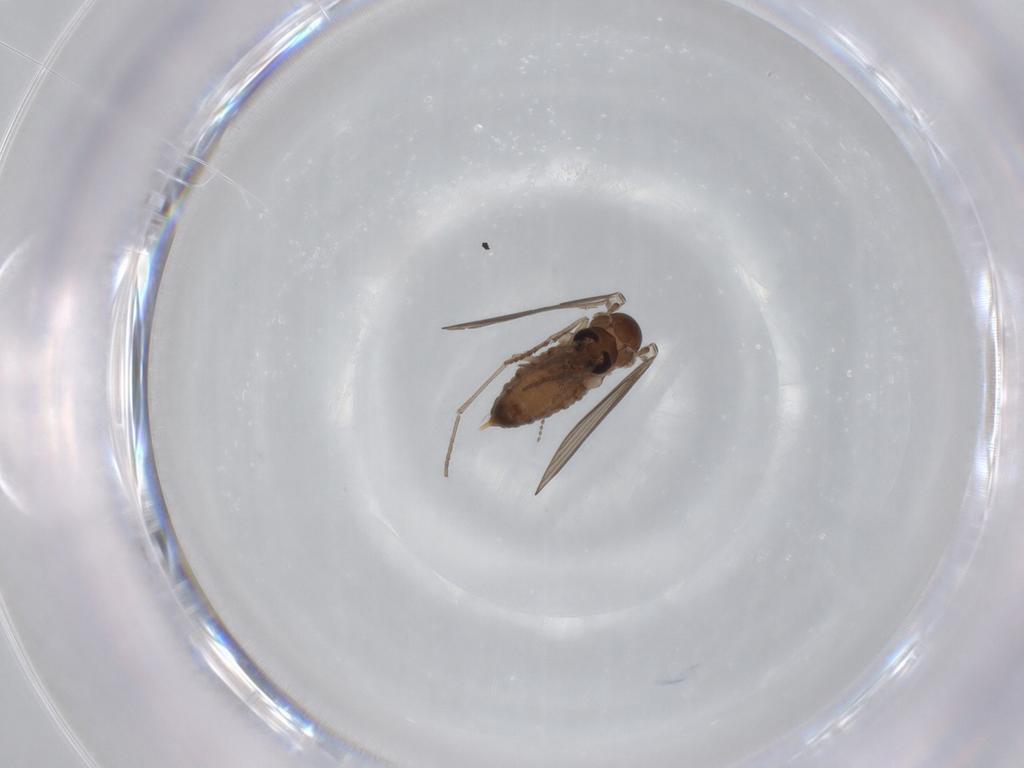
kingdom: Animalia
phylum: Arthropoda
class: Insecta
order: Diptera
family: Psychodidae
